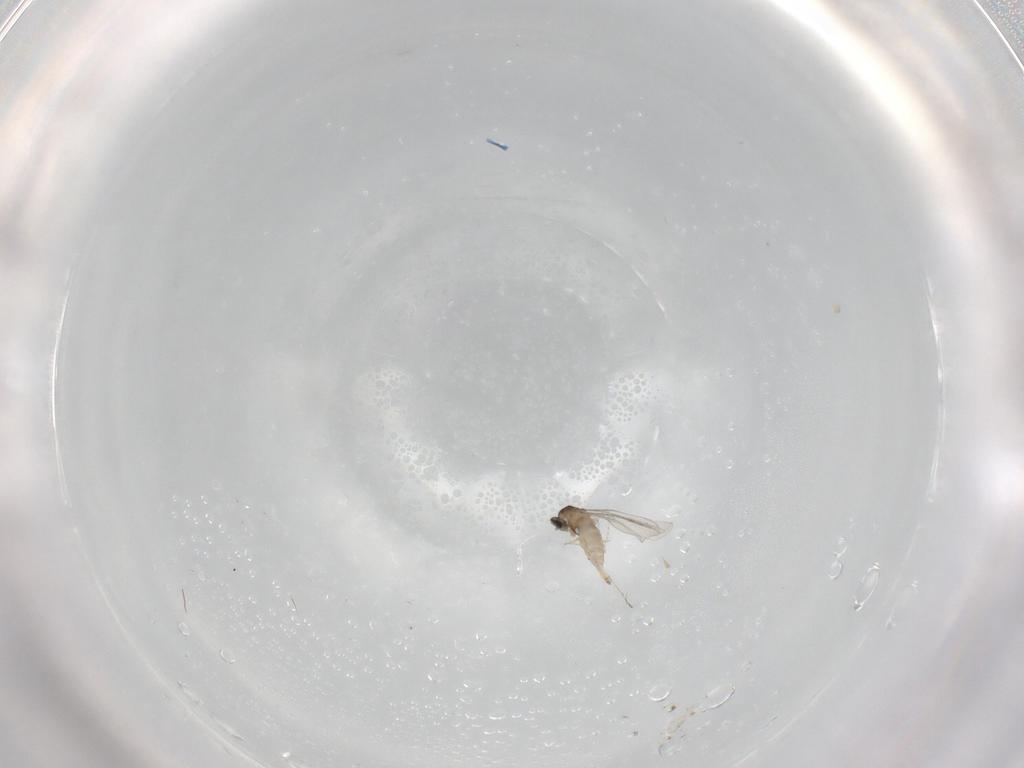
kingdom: Animalia
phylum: Arthropoda
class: Insecta
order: Diptera
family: Cecidomyiidae
